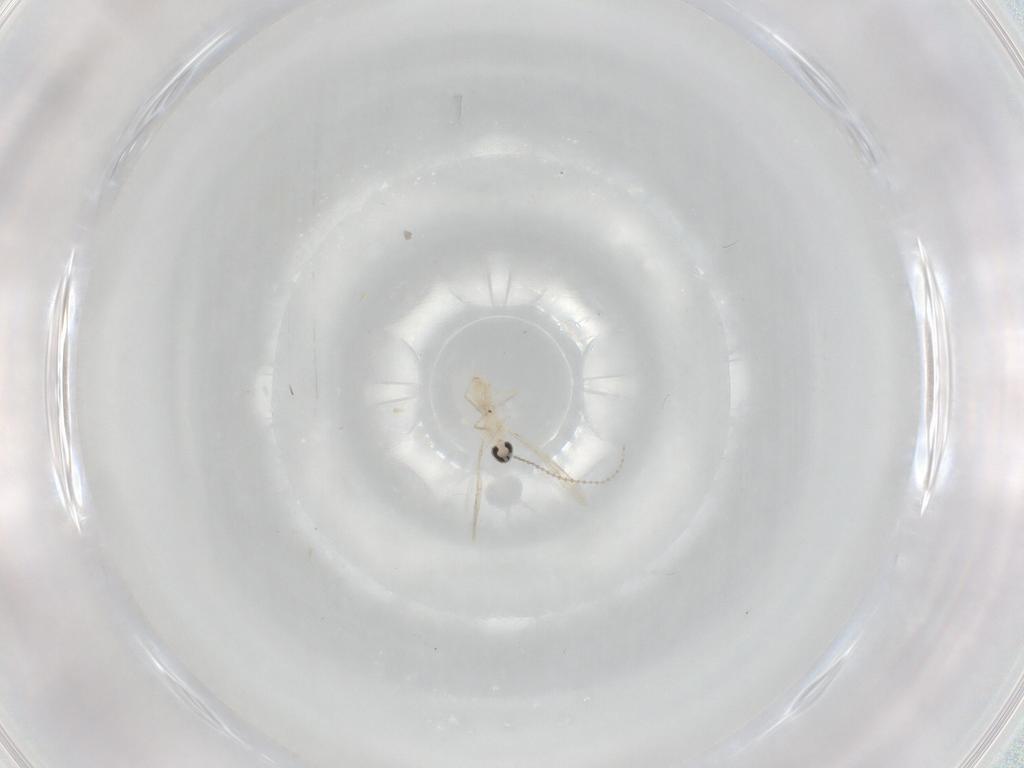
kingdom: Animalia
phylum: Arthropoda
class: Insecta
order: Diptera
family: Cecidomyiidae
